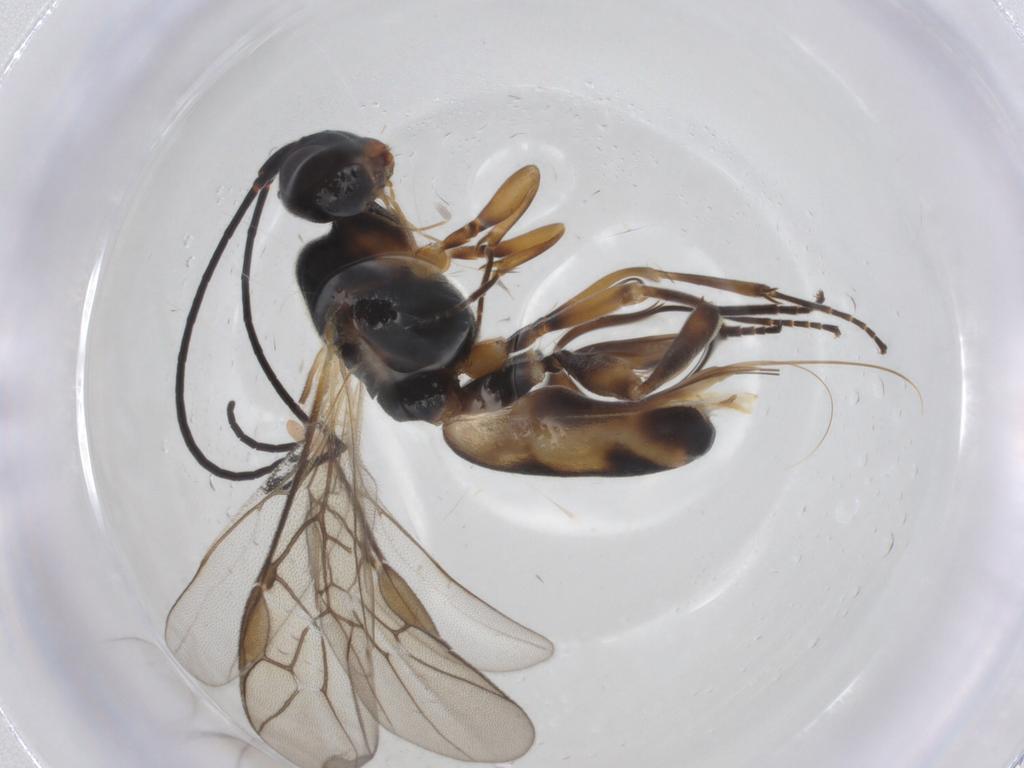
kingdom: Animalia
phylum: Arthropoda
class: Insecta
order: Hymenoptera
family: Braconidae
